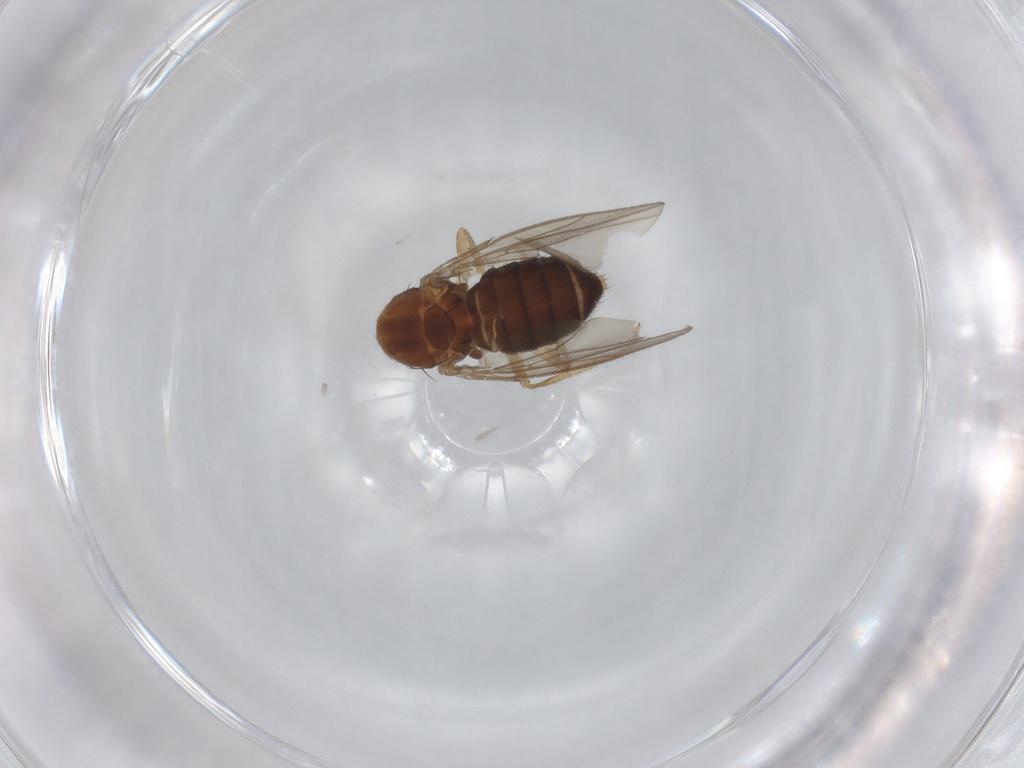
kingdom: Animalia
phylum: Arthropoda
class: Insecta
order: Diptera
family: Drosophilidae
